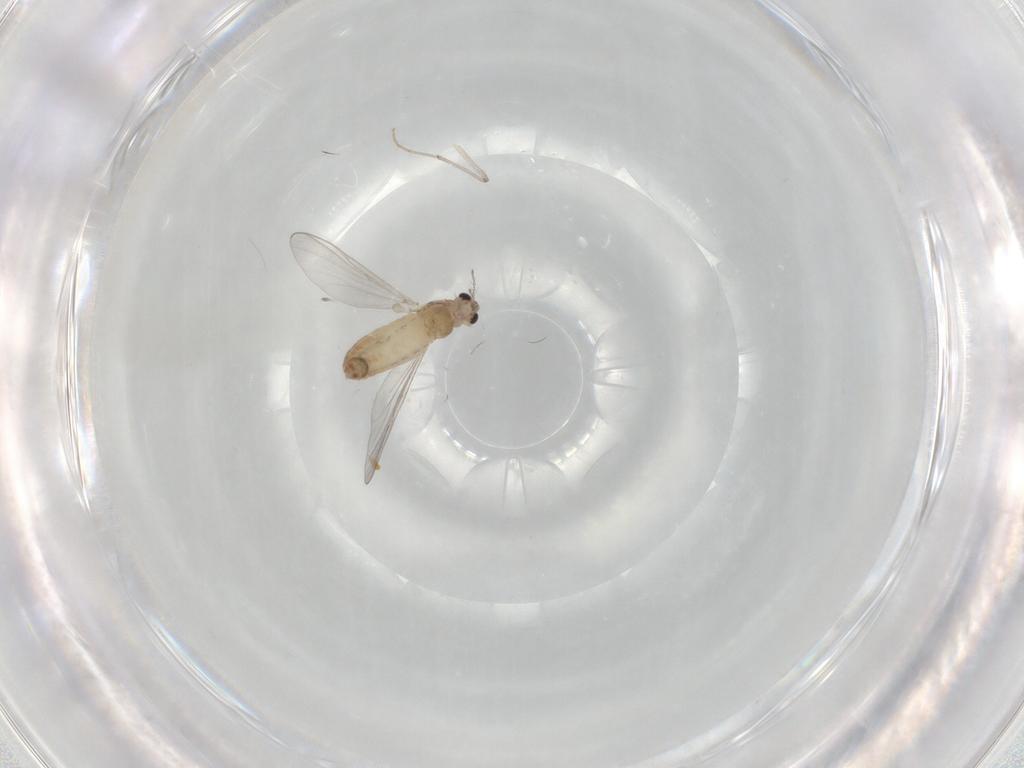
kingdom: Animalia
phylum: Arthropoda
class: Insecta
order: Diptera
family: Chironomidae
